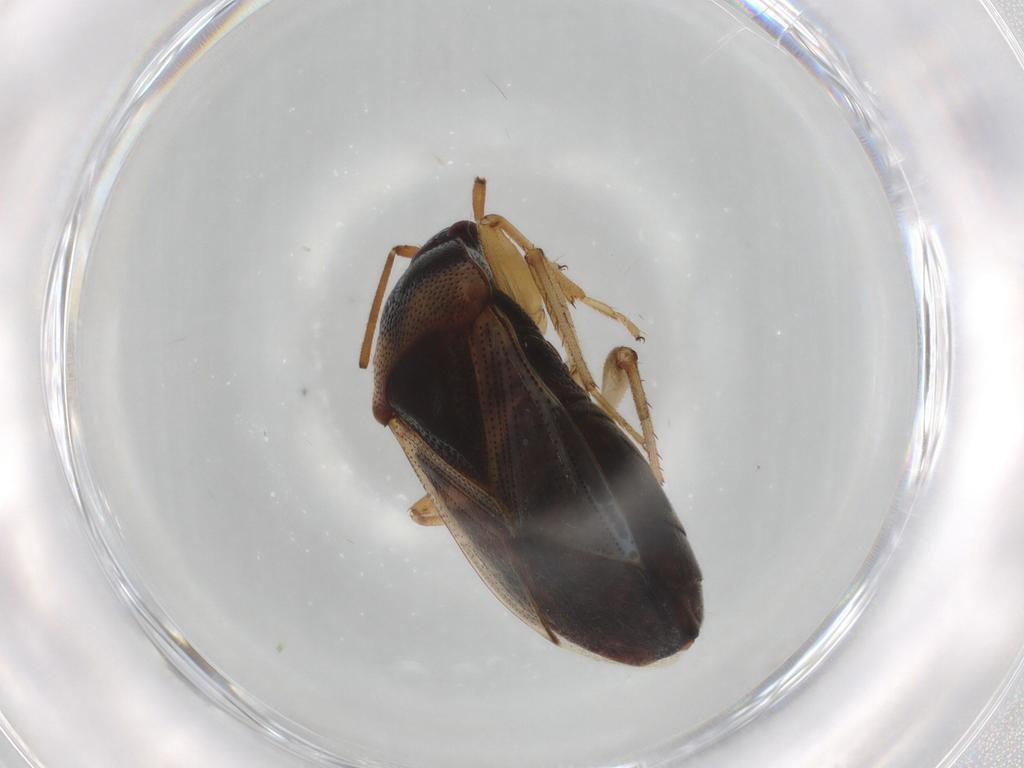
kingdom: Animalia
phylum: Arthropoda
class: Insecta
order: Hemiptera
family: Rhyparochromidae
